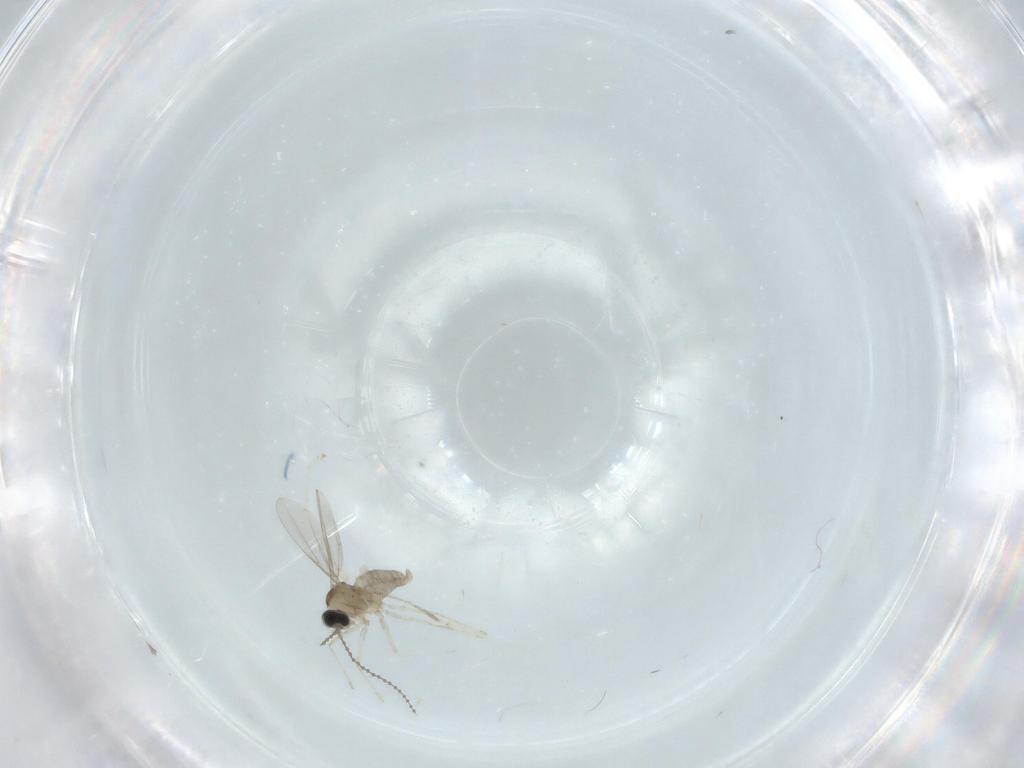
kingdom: Animalia
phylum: Arthropoda
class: Insecta
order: Diptera
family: Cecidomyiidae
